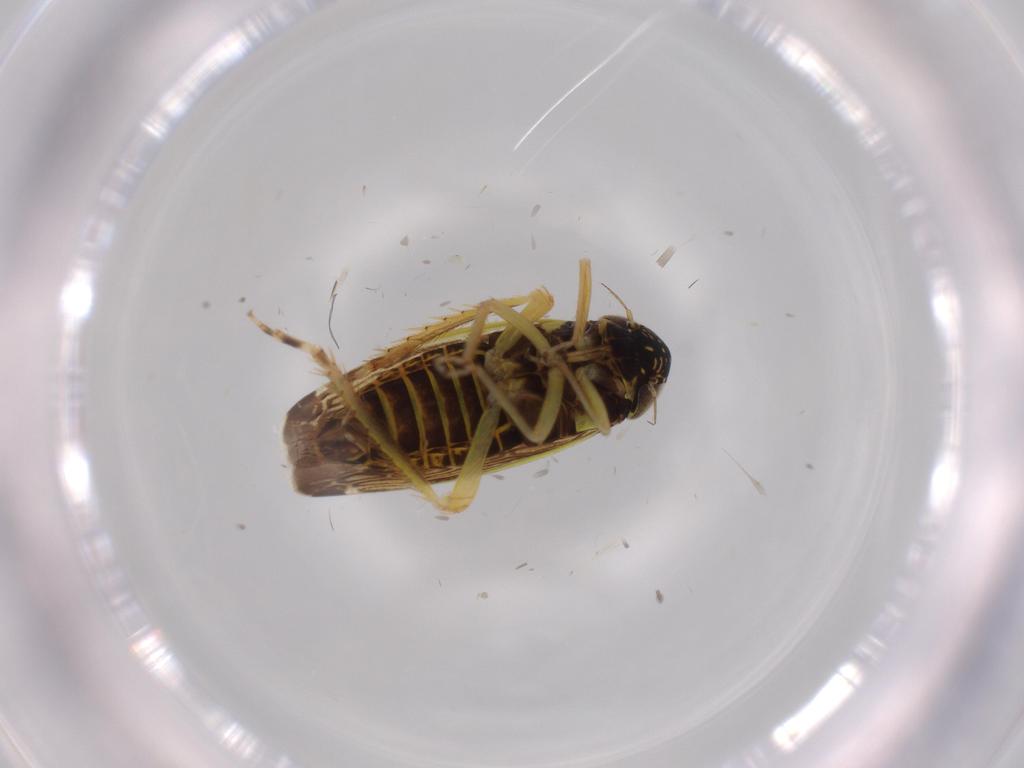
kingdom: Animalia
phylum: Arthropoda
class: Insecta
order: Hemiptera
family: Cicadellidae
